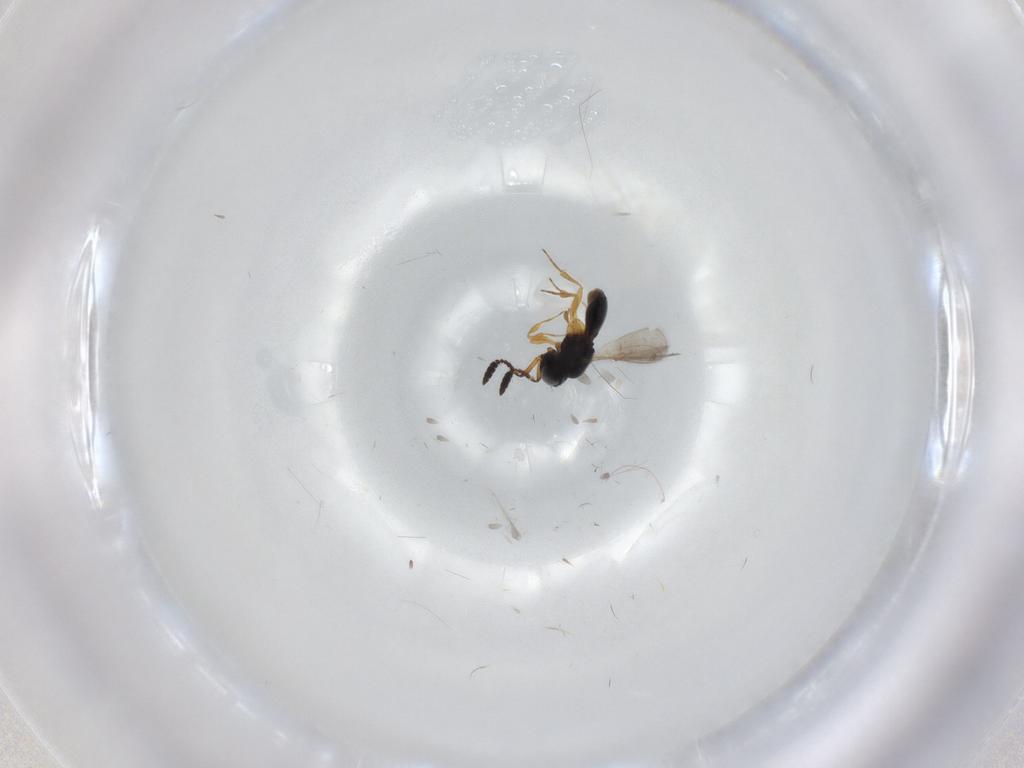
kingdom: Animalia
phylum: Arthropoda
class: Insecta
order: Hymenoptera
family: Scelionidae
